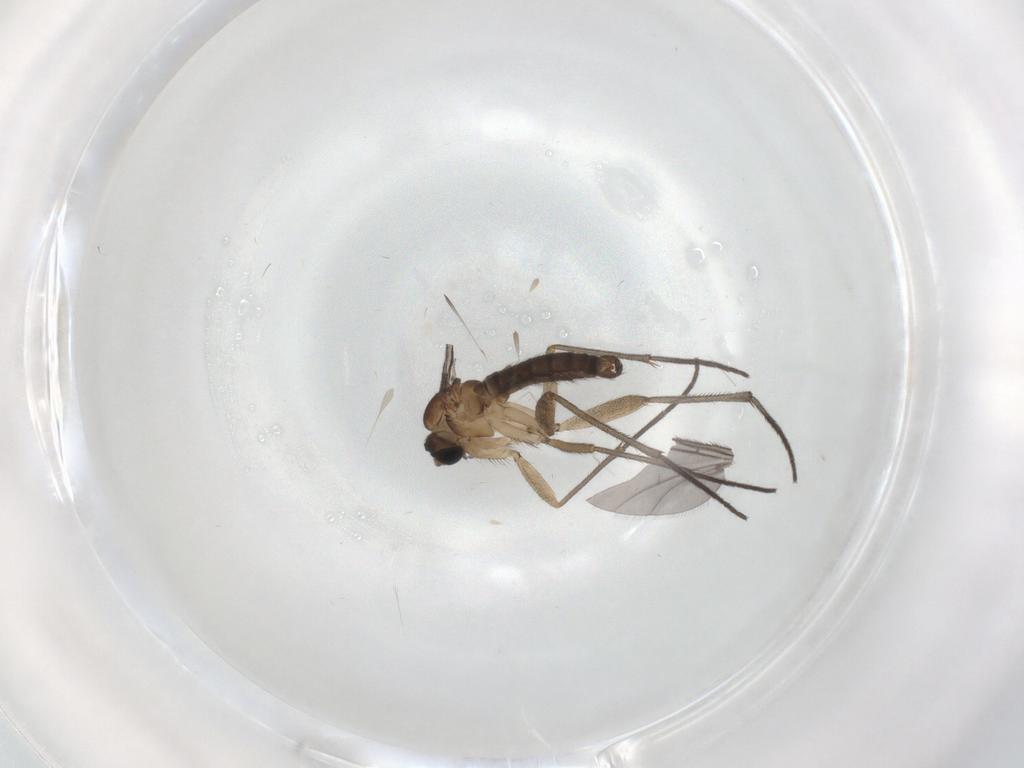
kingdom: Animalia
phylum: Arthropoda
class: Insecta
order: Diptera
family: Sciaridae
